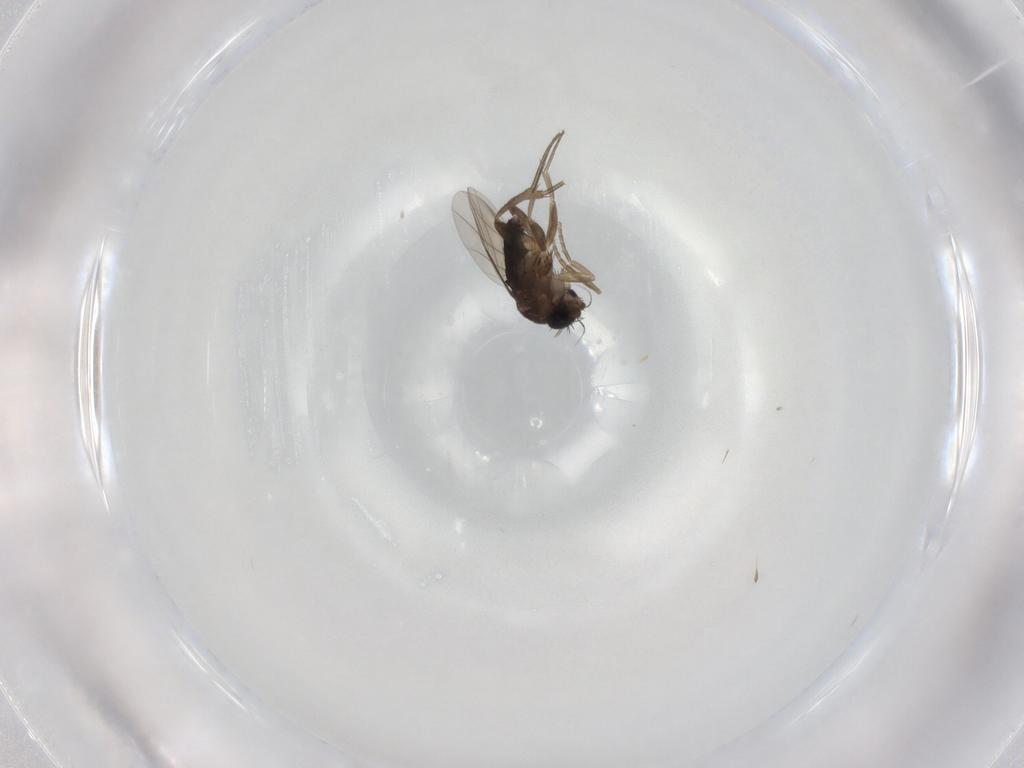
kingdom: Animalia
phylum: Arthropoda
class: Insecta
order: Diptera
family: Phoridae
